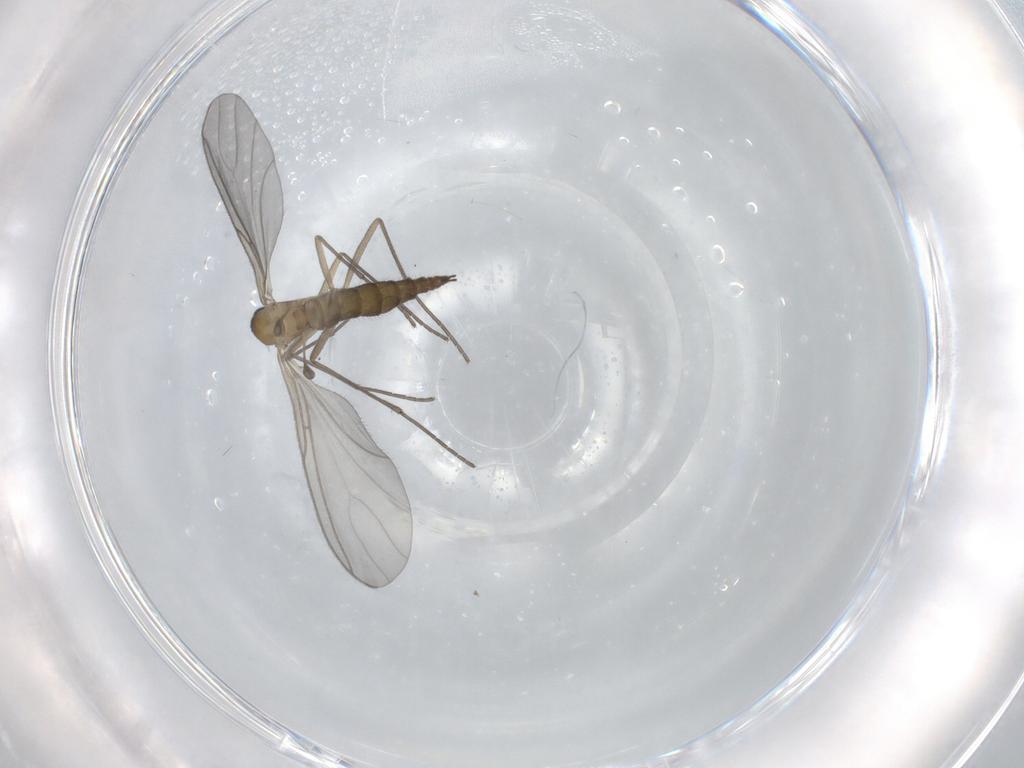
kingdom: Animalia
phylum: Arthropoda
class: Insecta
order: Diptera
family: Sciaridae
